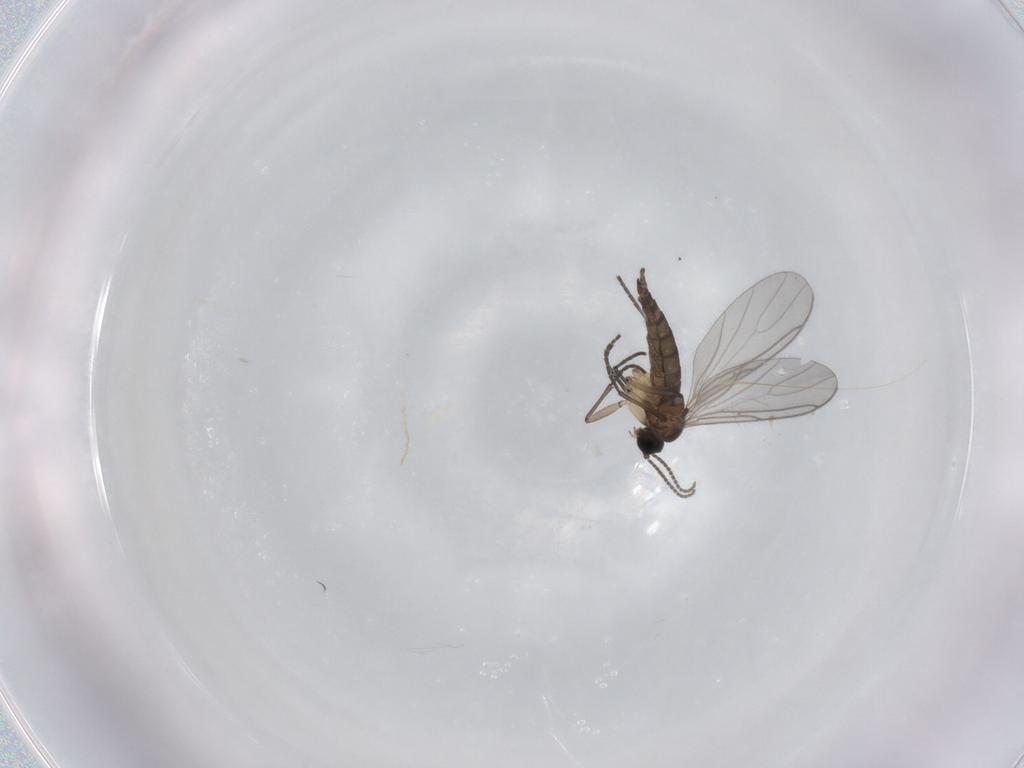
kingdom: Animalia
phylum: Arthropoda
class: Insecta
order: Diptera
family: Sciaridae
